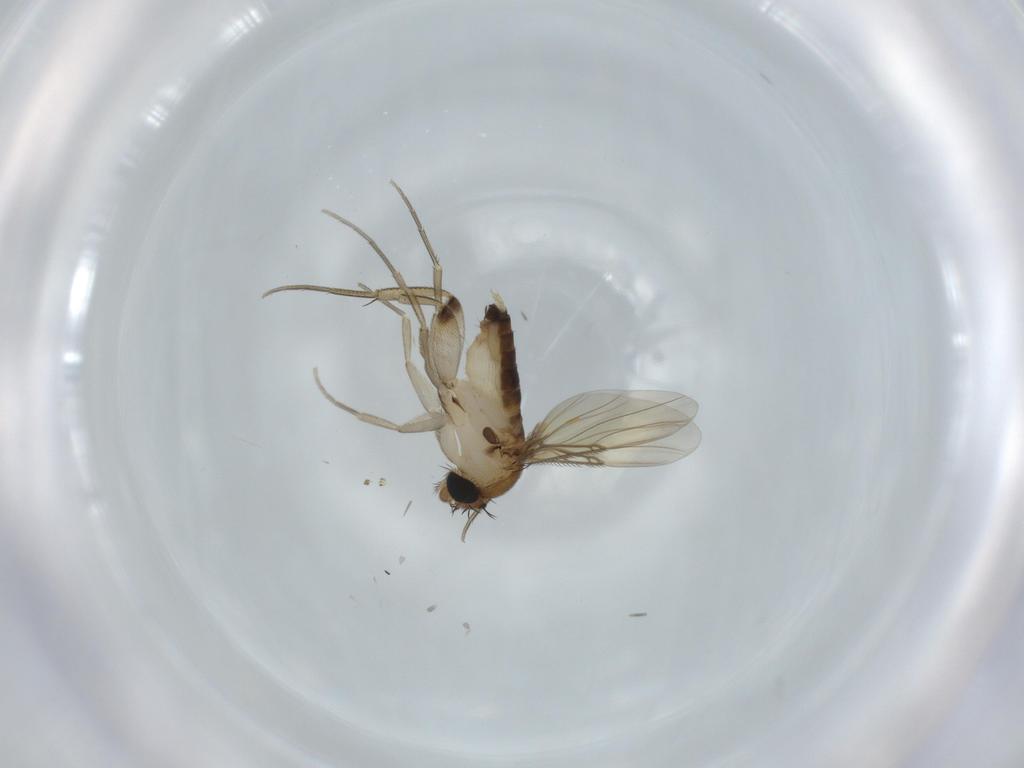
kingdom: Animalia
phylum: Arthropoda
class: Insecta
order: Diptera
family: Phoridae
